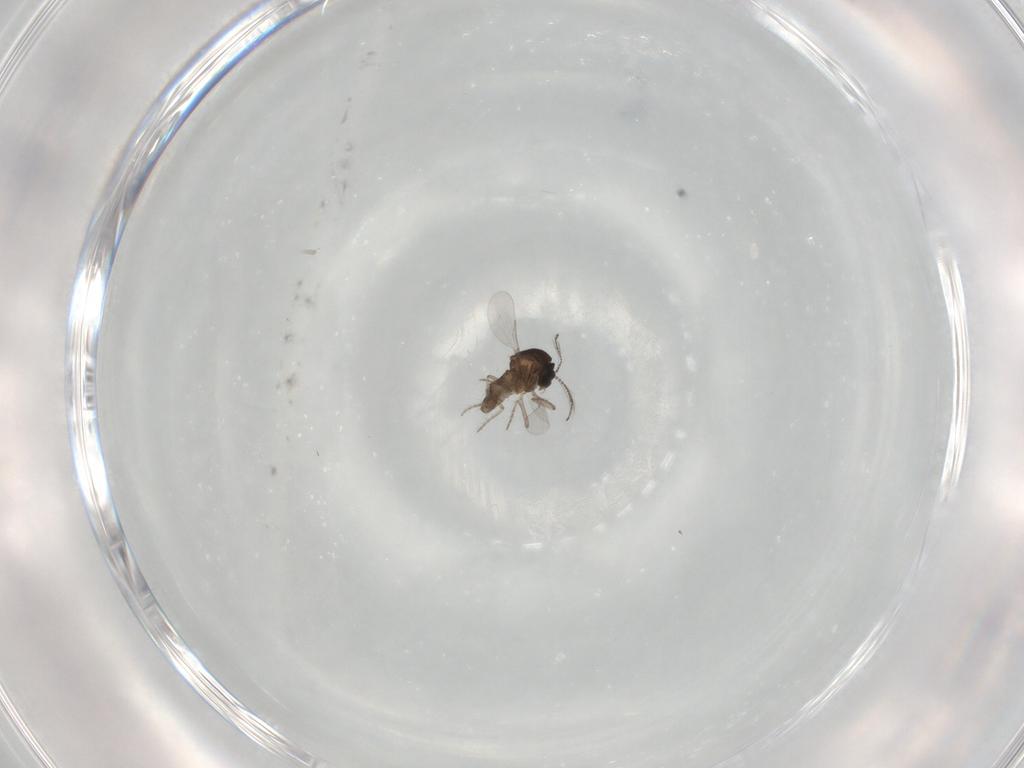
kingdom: Animalia
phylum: Arthropoda
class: Insecta
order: Diptera
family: Ceratopogonidae
